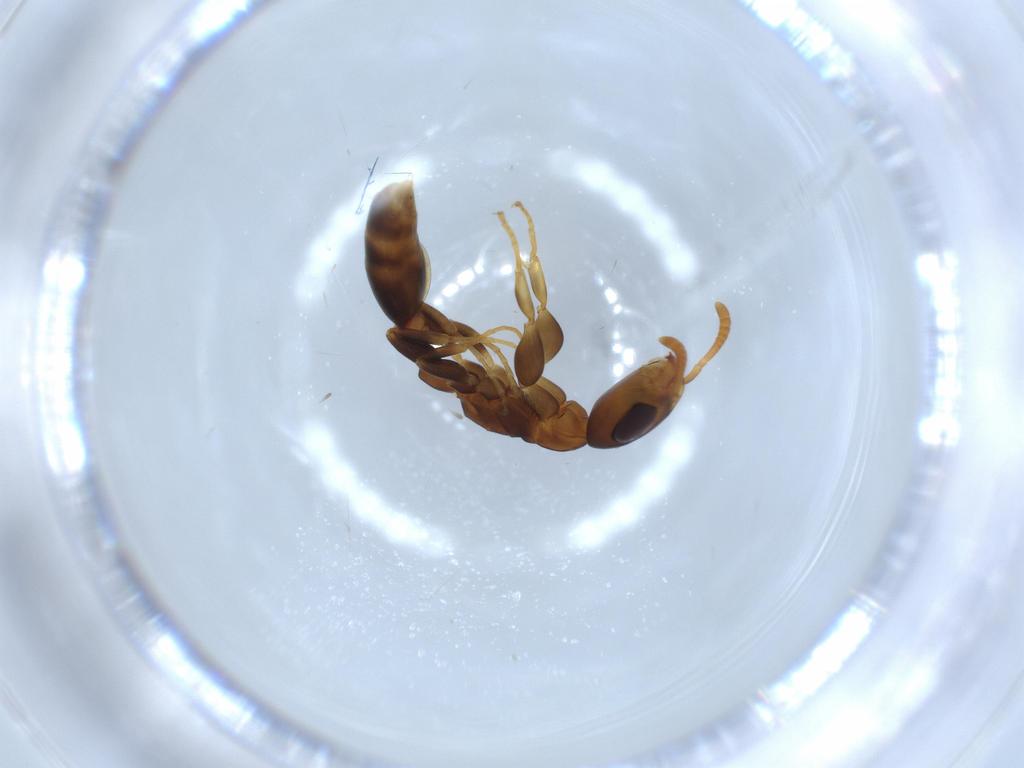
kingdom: Animalia
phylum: Arthropoda
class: Insecta
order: Hymenoptera
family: Formicidae
